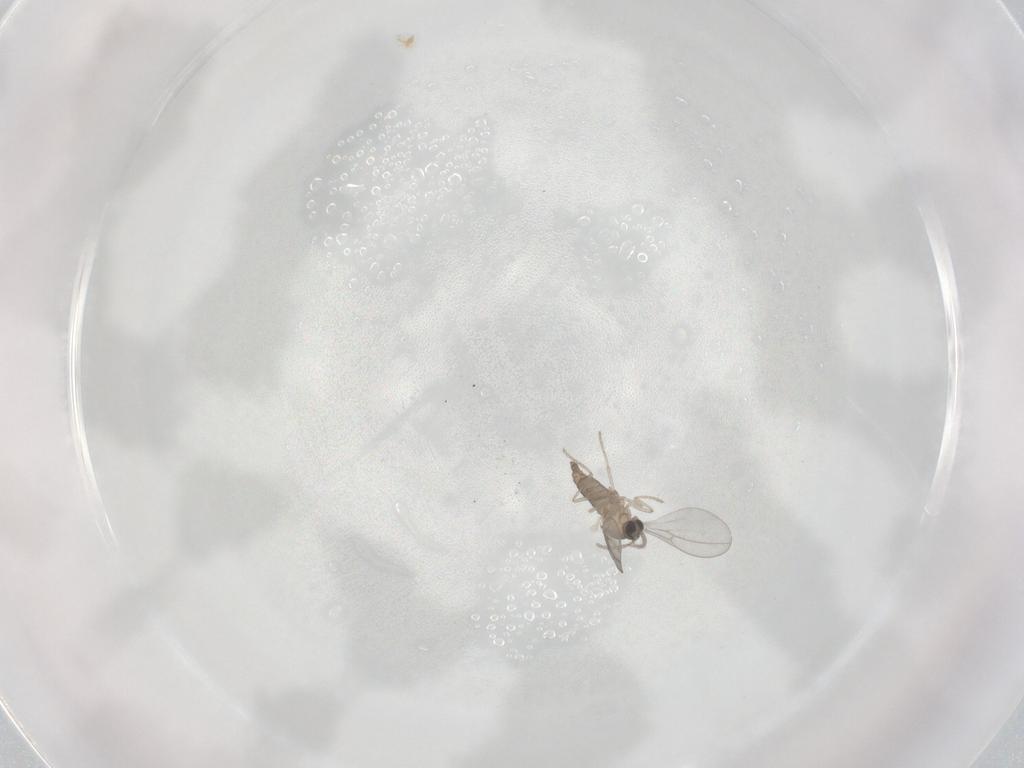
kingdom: Animalia
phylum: Arthropoda
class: Insecta
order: Diptera
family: Cecidomyiidae
